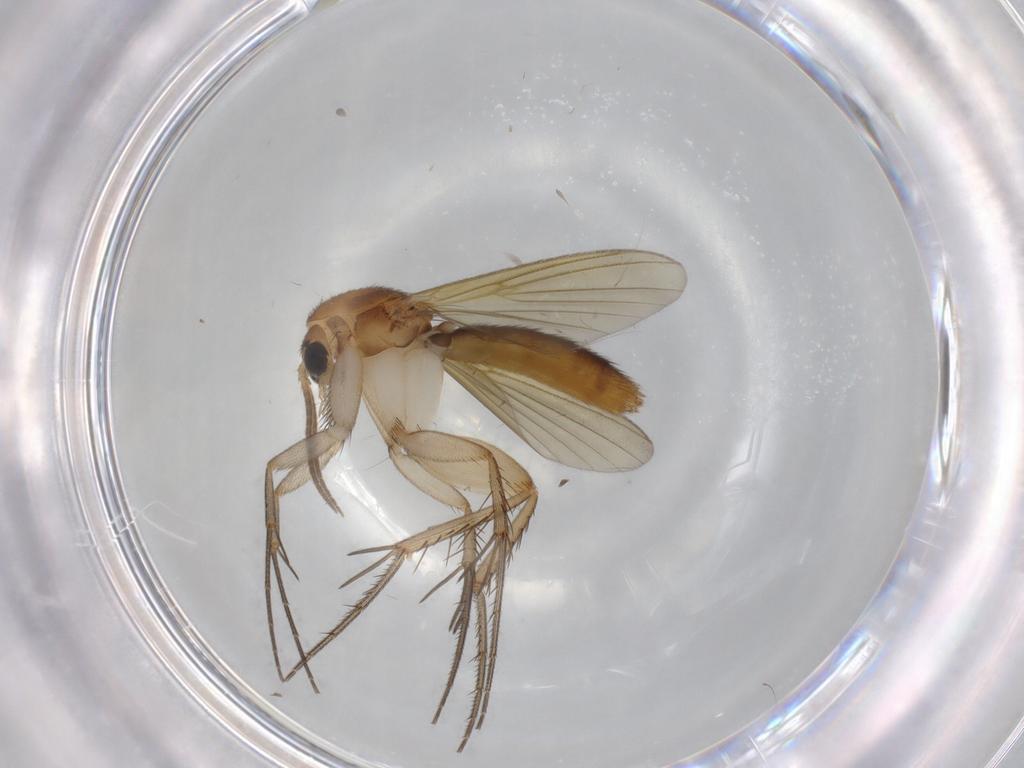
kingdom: Animalia
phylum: Arthropoda
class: Insecta
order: Diptera
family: Phoridae
